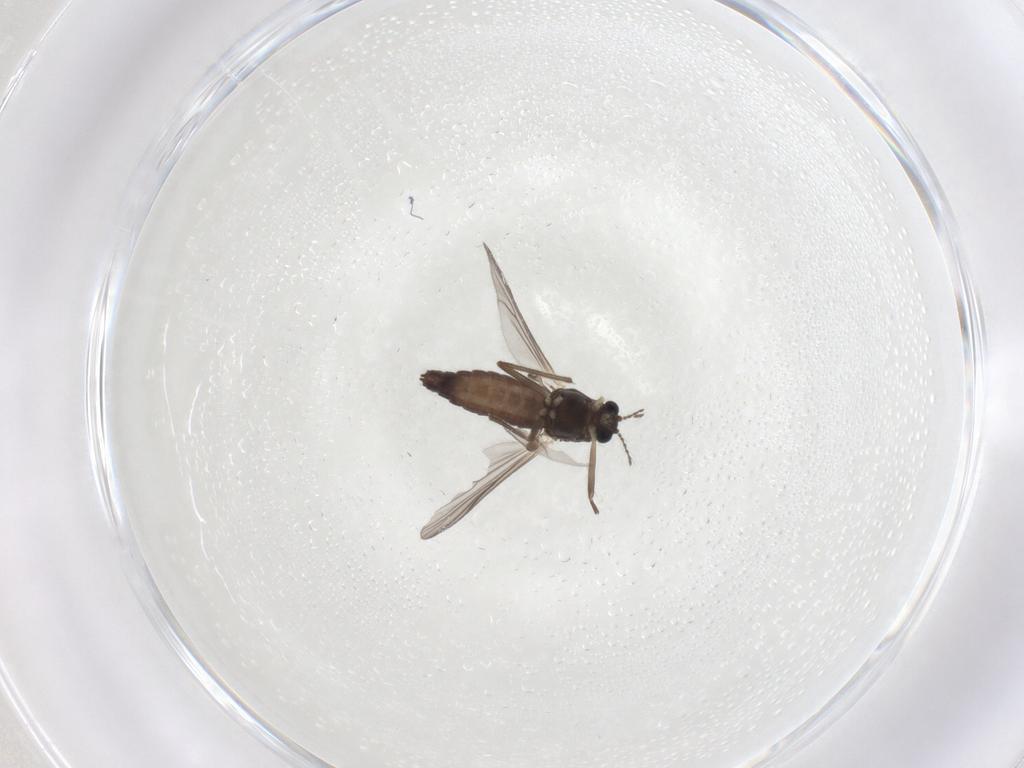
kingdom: Animalia
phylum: Arthropoda
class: Insecta
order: Diptera
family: Chironomidae
